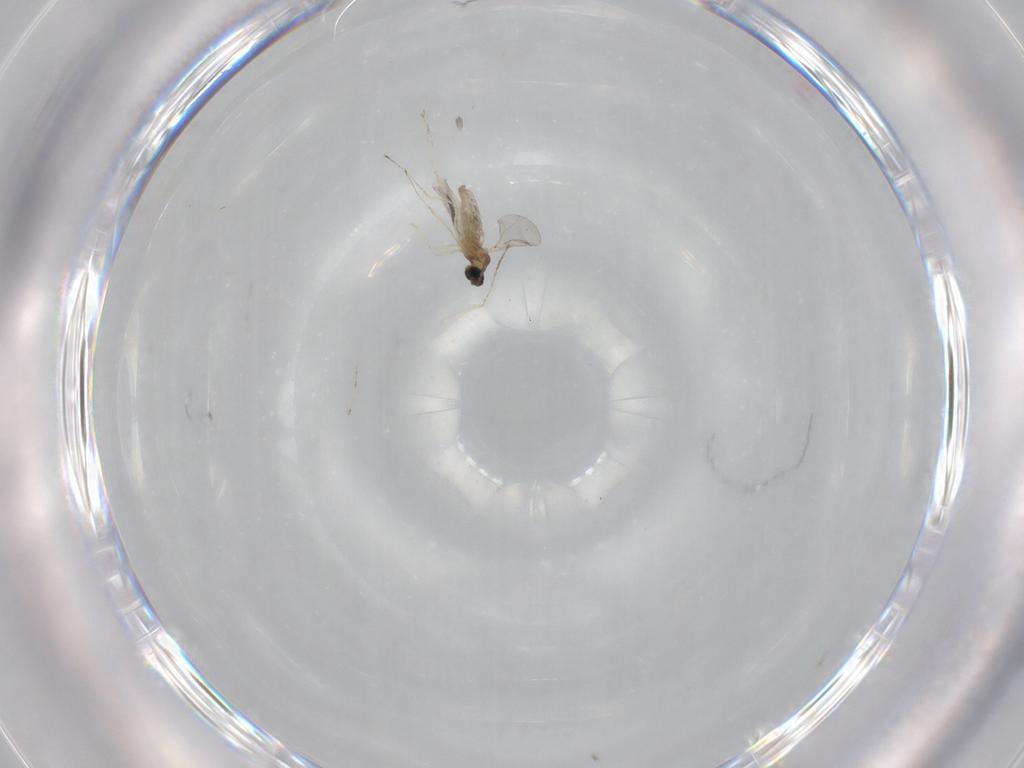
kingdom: Animalia
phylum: Arthropoda
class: Insecta
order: Diptera
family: Cecidomyiidae
